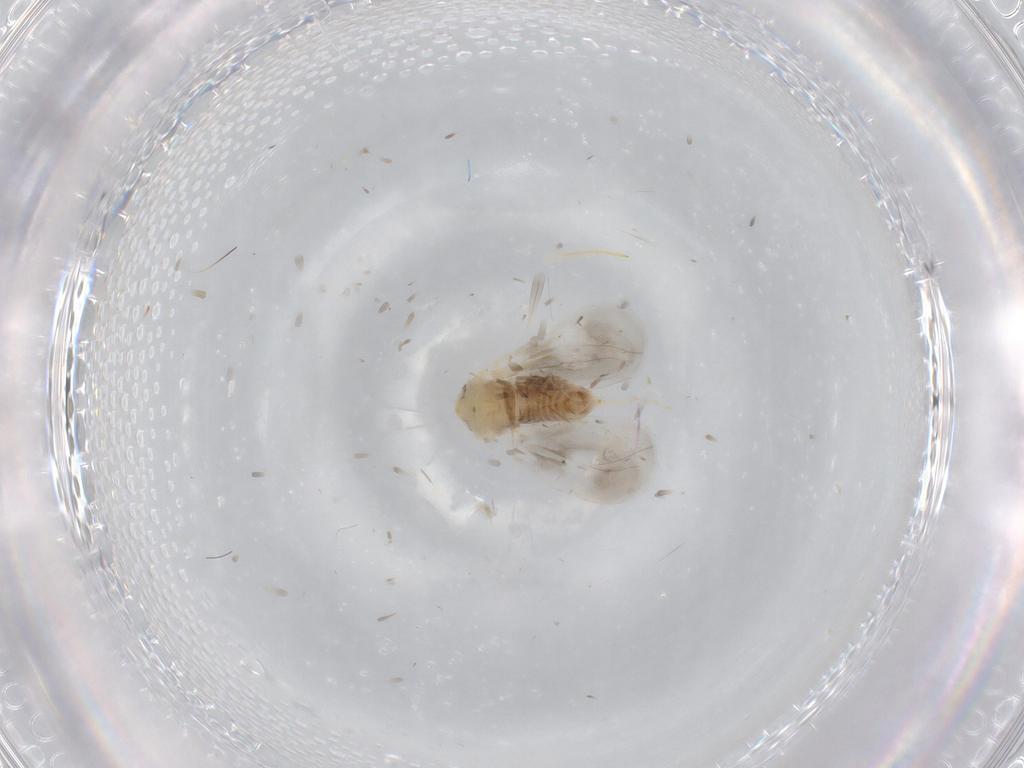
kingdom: Animalia
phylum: Arthropoda
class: Insecta
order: Hemiptera
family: Aleyrodidae
